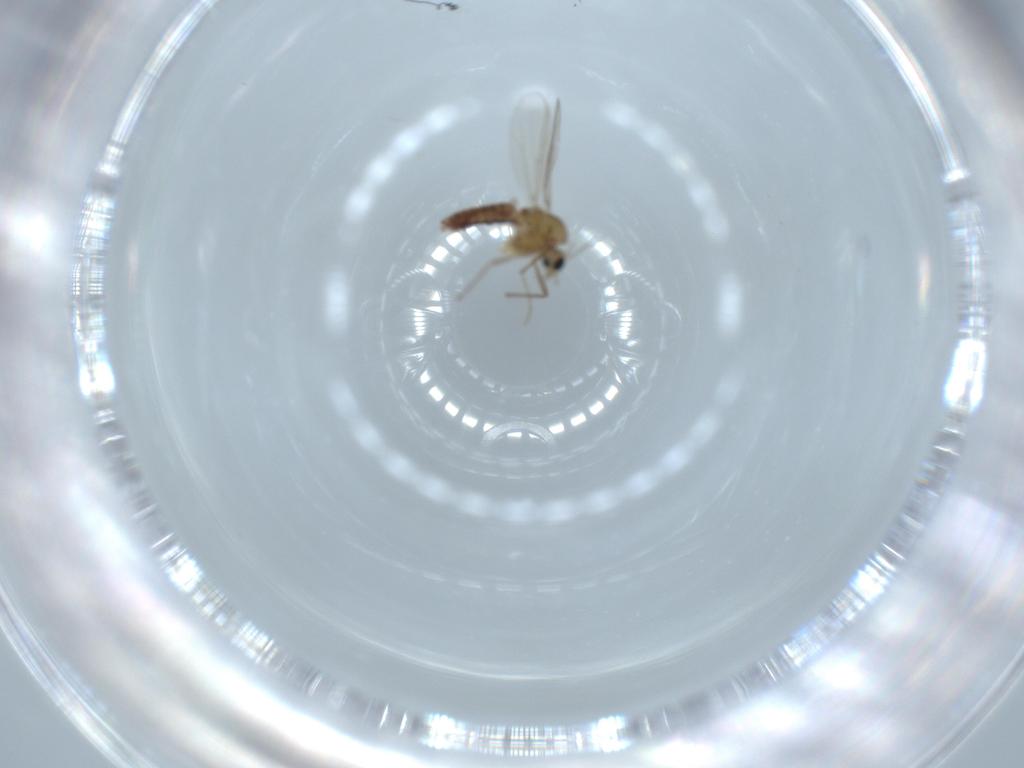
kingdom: Animalia
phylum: Arthropoda
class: Insecta
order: Diptera
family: Chironomidae
